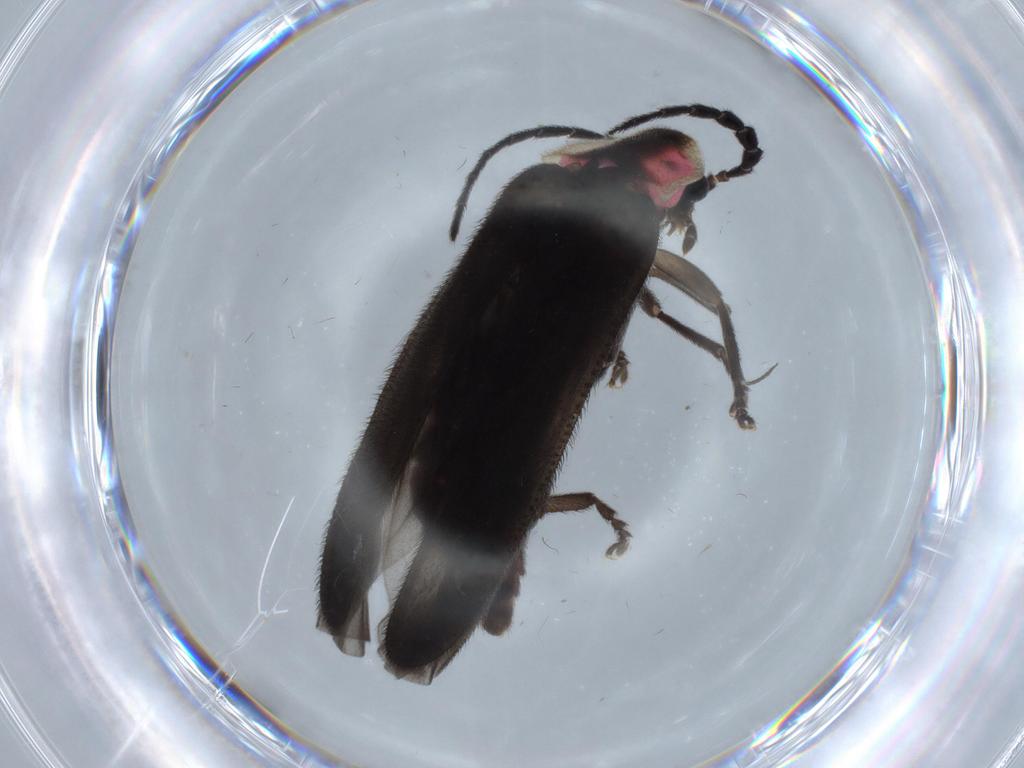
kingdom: Animalia
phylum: Arthropoda
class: Insecta
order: Coleoptera
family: Lampyridae
